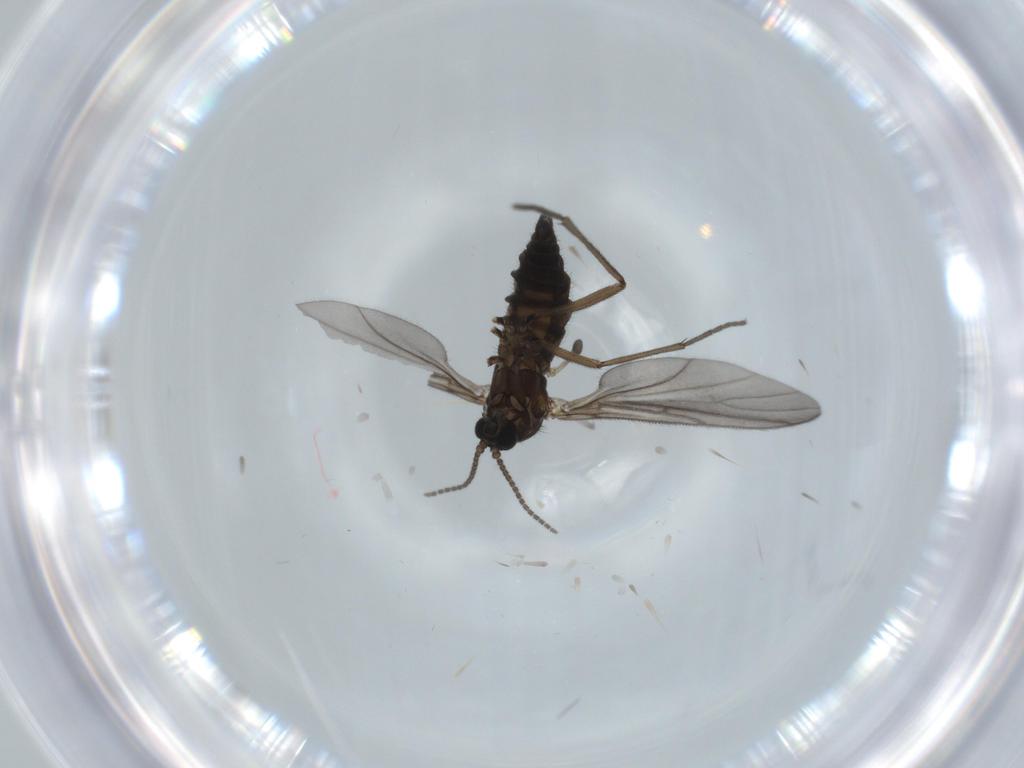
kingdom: Animalia
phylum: Arthropoda
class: Insecta
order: Diptera
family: Sciaridae
